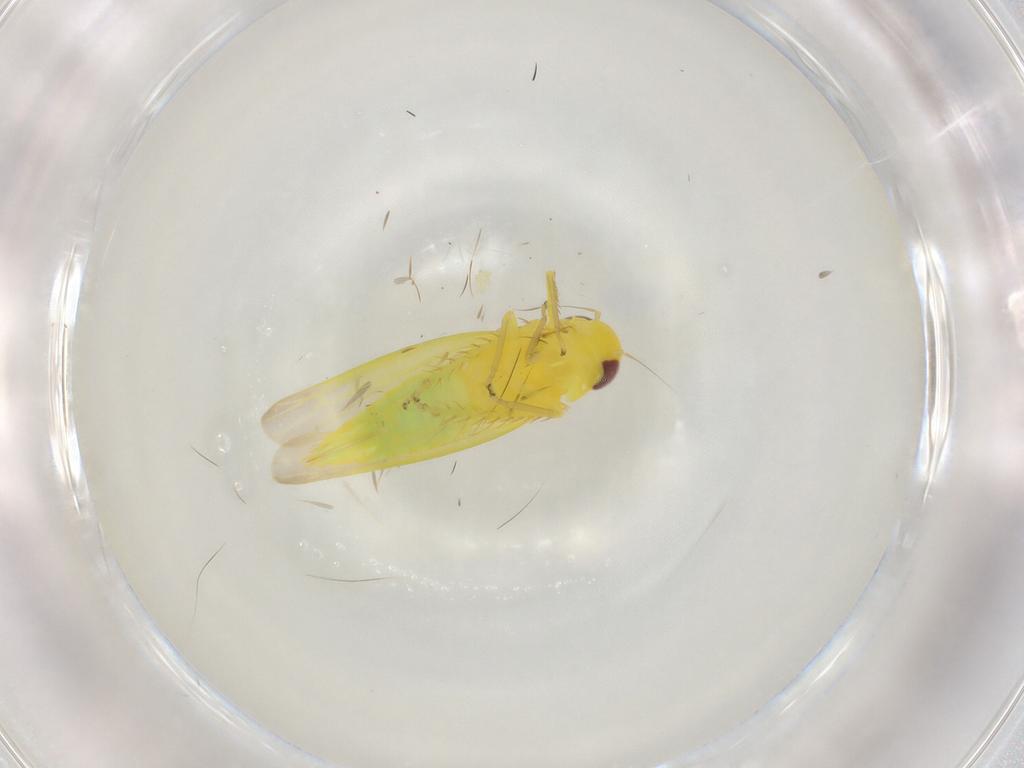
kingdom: Animalia
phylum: Arthropoda
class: Insecta
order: Hemiptera
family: Cicadellidae
